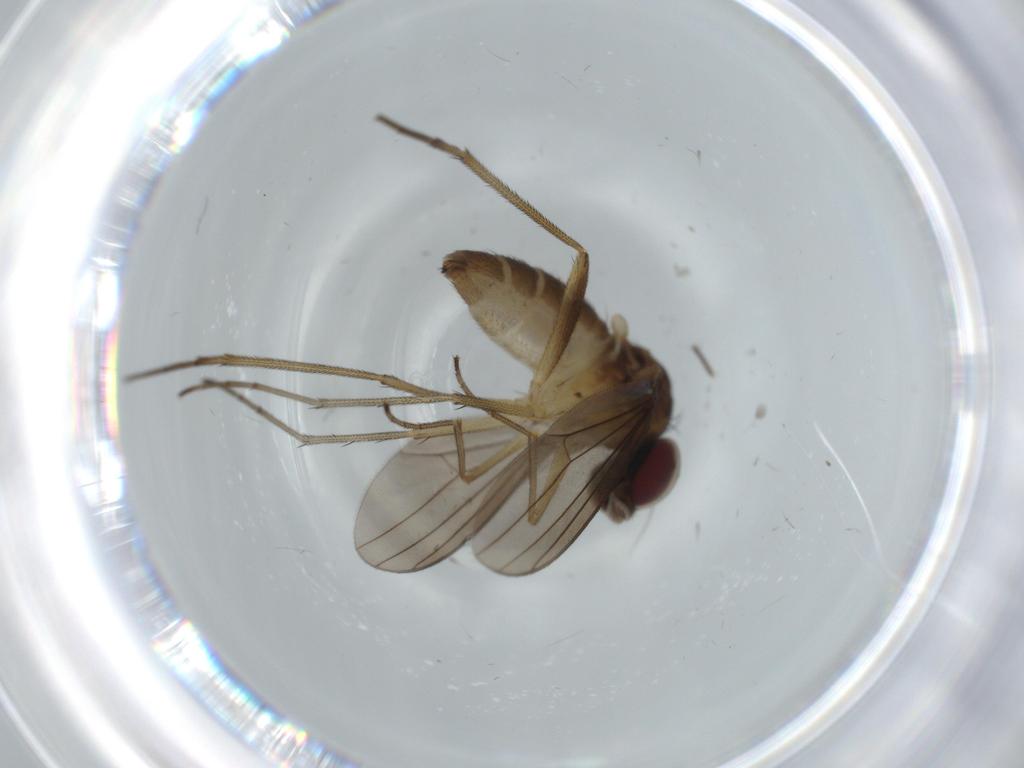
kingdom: Animalia
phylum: Arthropoda
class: Insecta
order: Diptera
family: Dolichopodidae
